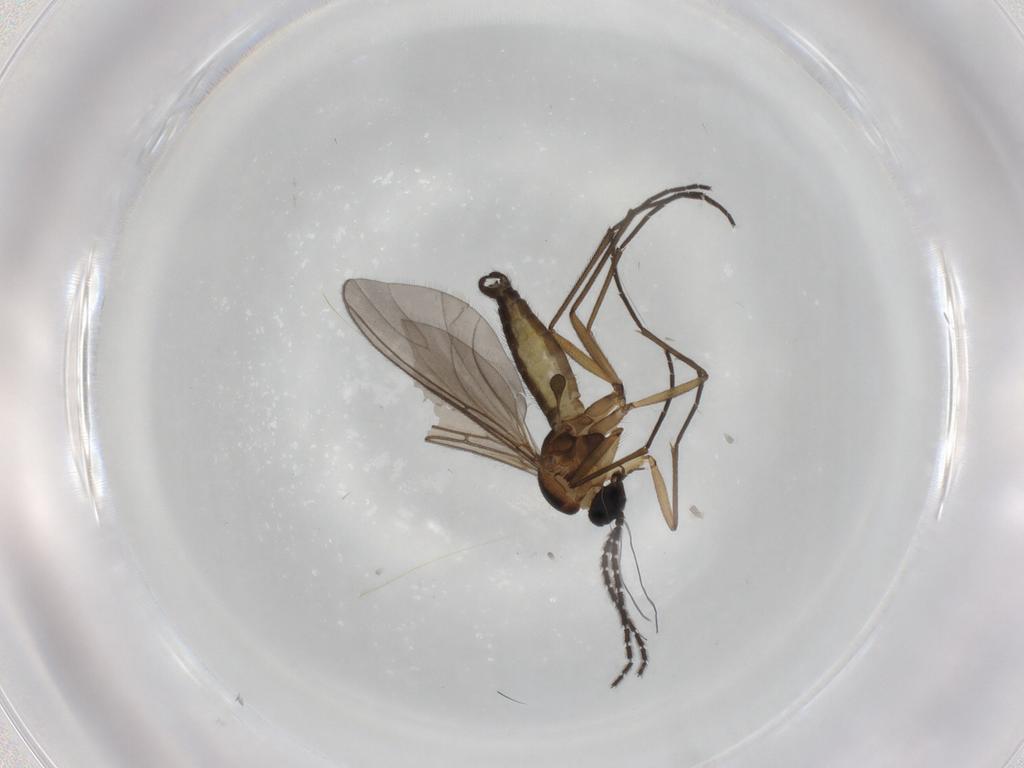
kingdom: Animalia
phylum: Arthropoda
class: Insecta
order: Diptera
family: Sciaridae
